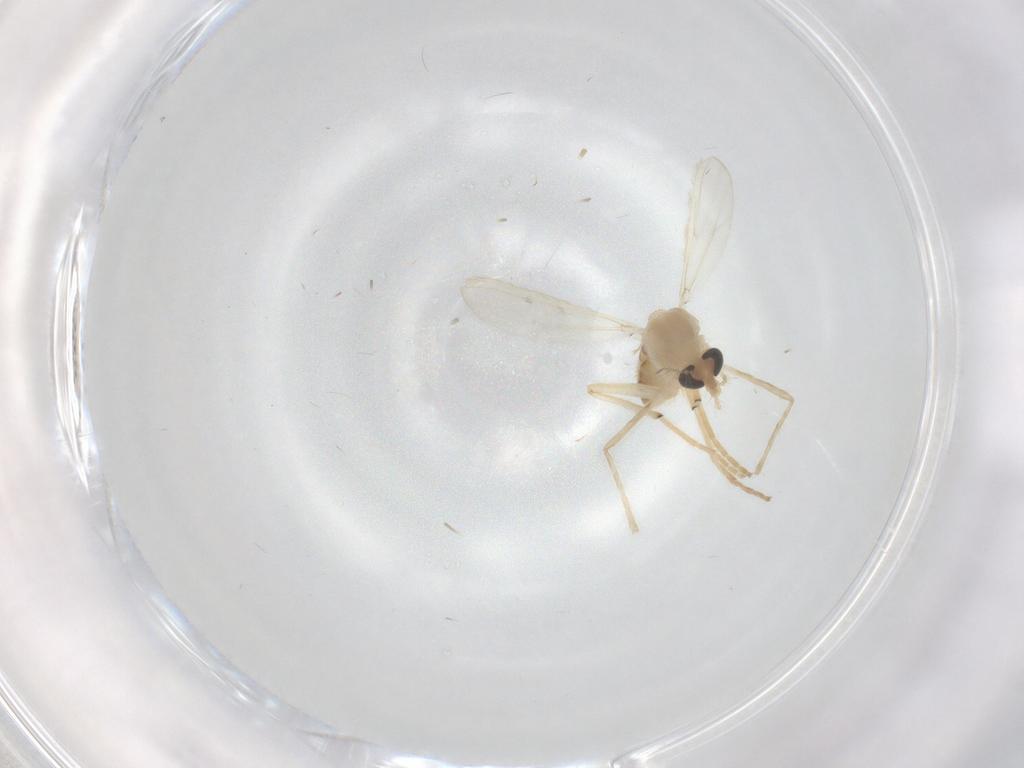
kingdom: Animalia
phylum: Arthropoda
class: Insecta
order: Diptera
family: Chironomidae
